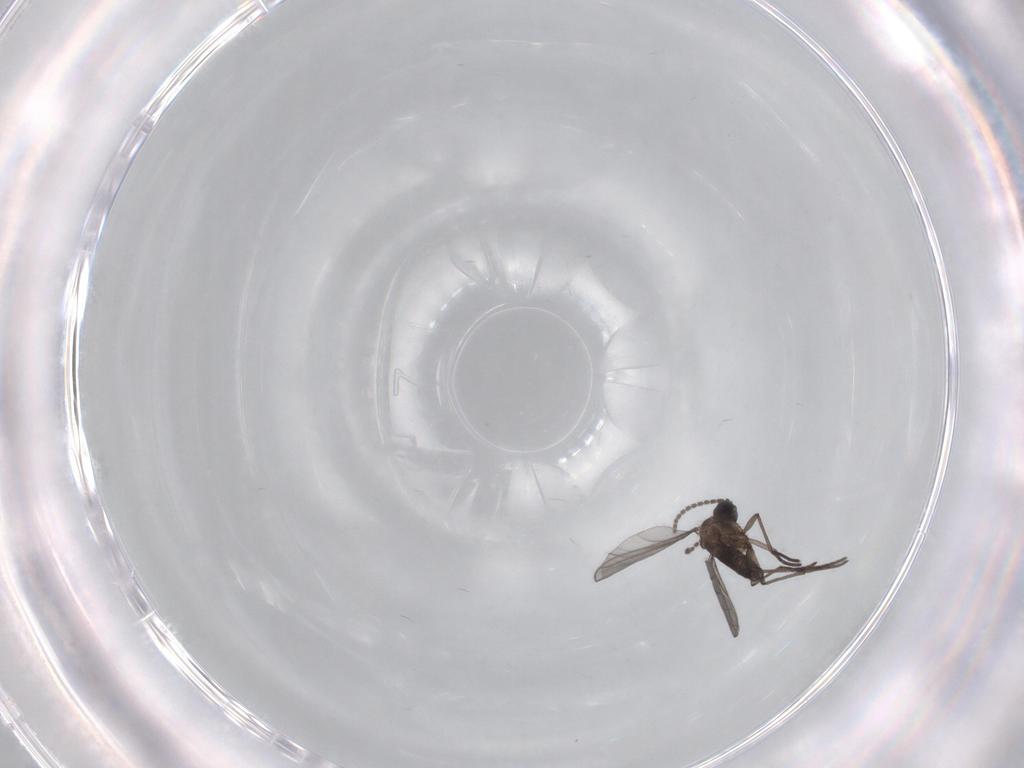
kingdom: Animalia
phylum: Arthropoda
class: Insecta
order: Diptera
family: Sciaridae
